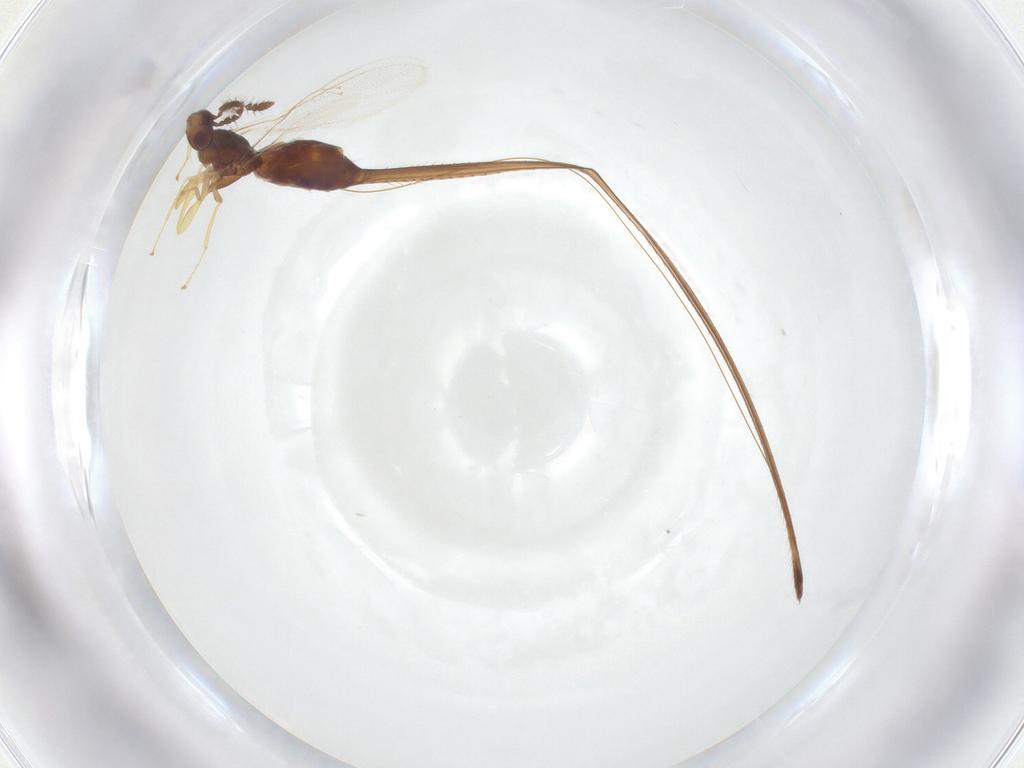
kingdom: Animalia
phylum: Arthropoda
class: Insecta
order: Hymenoptera
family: Pteromalidae
